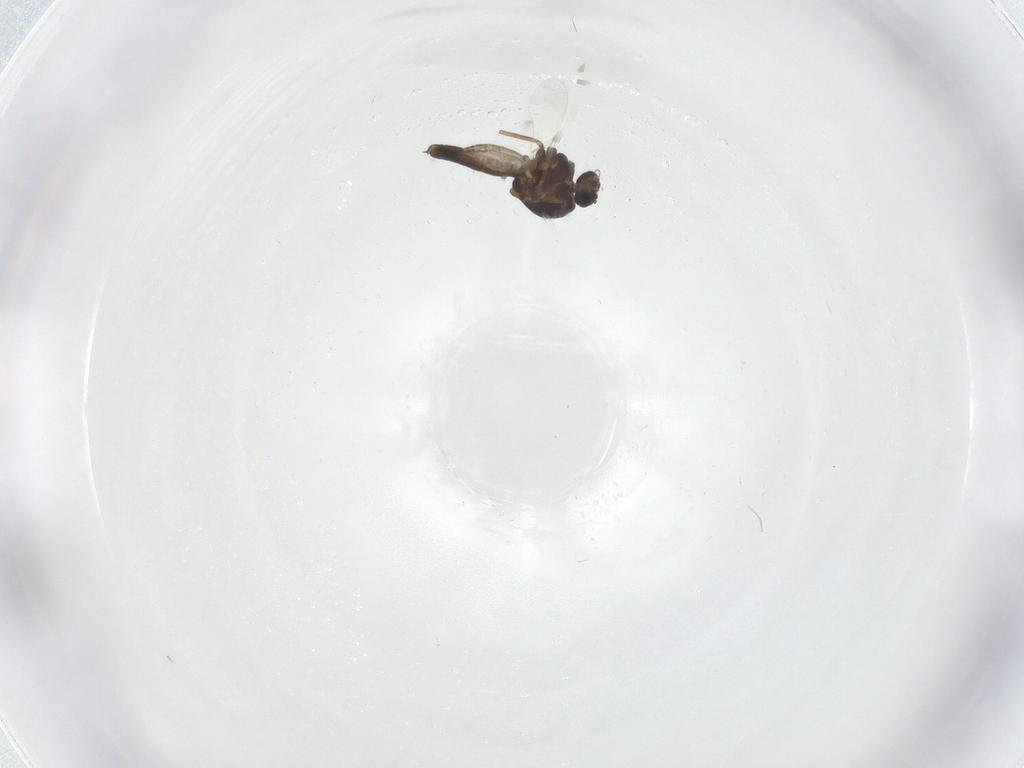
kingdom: Animalia
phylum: Arthropoda
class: Insecta
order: Diptera
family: Ceratopogonidae
